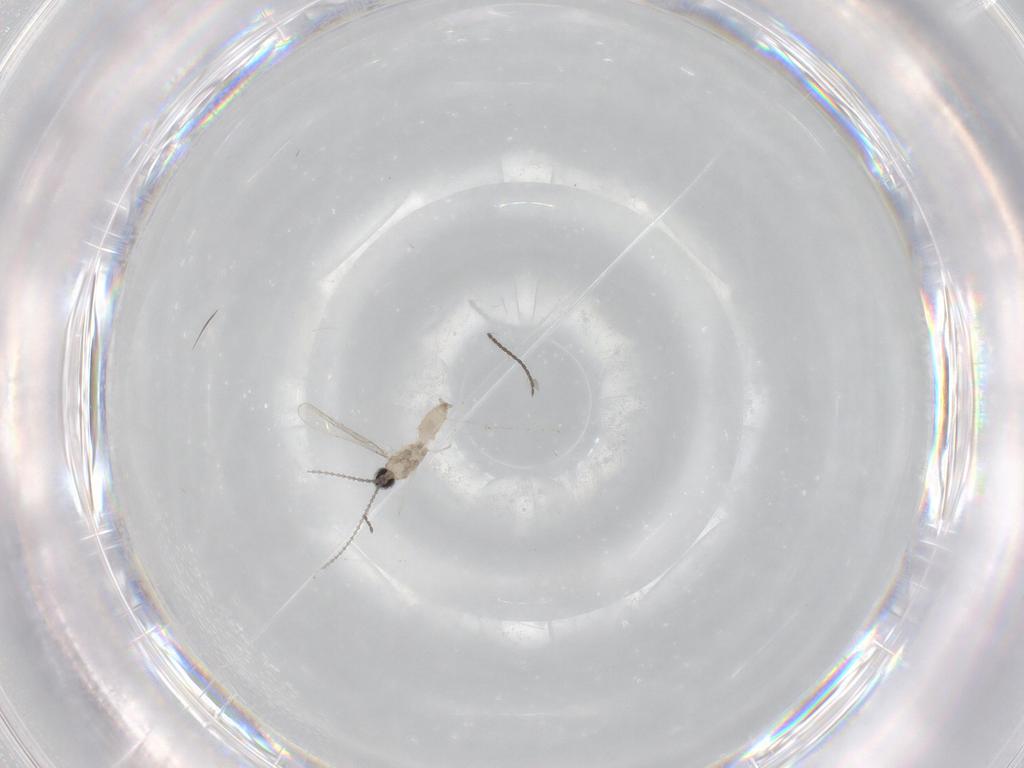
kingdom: Animalia
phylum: Arthropoda
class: Insecta
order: Diptera
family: Cecidomyiidae
